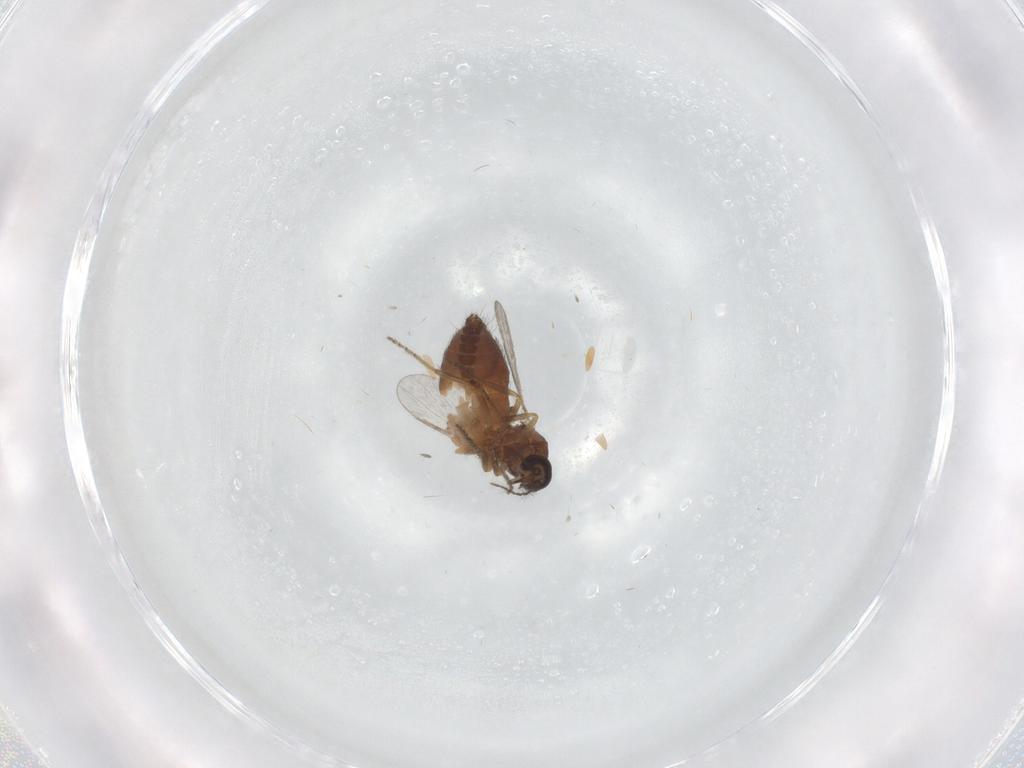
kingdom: Animalia
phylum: Arthropoda
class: Insecta
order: Diptera
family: Ceratopogonidae
